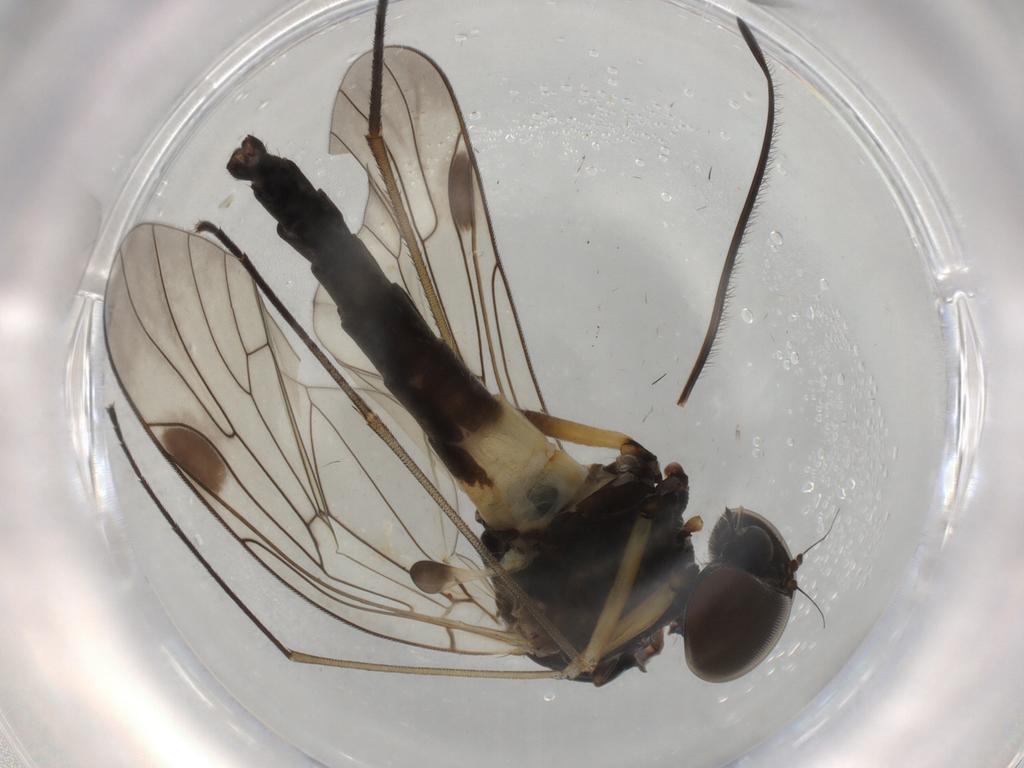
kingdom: Animalia
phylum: Arthropoda
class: Insecta
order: Diptera
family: Rhagionidae
